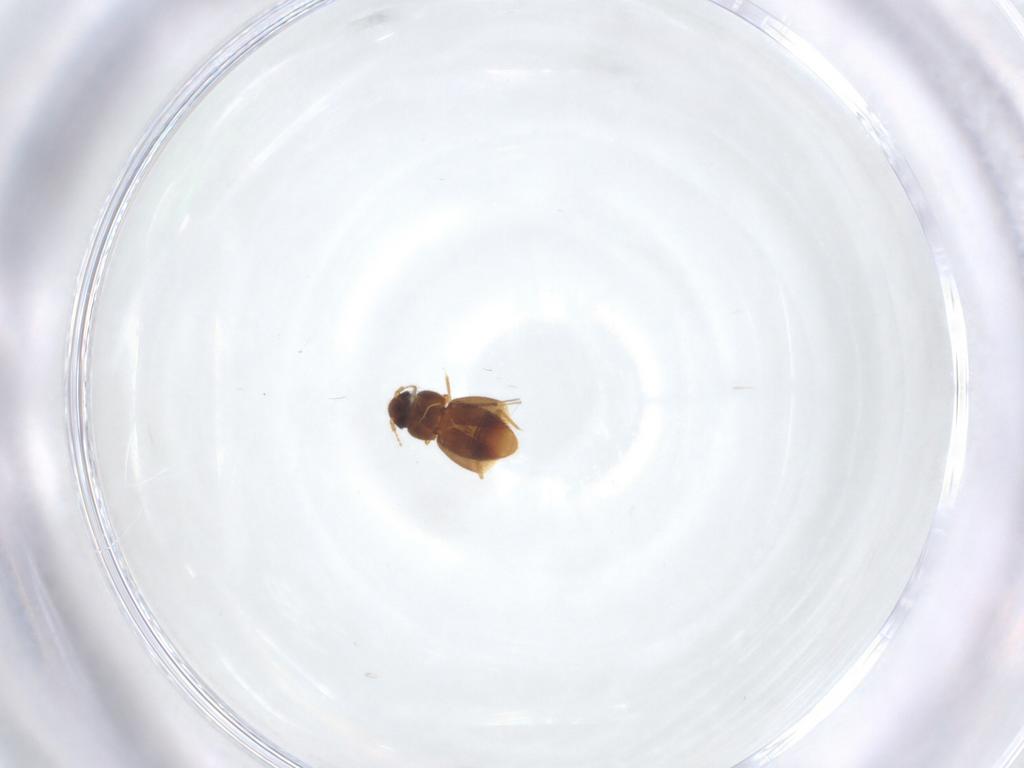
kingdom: Animalia
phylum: Arthropoda
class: Insecta
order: Coleoptera
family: Ptiliidae
